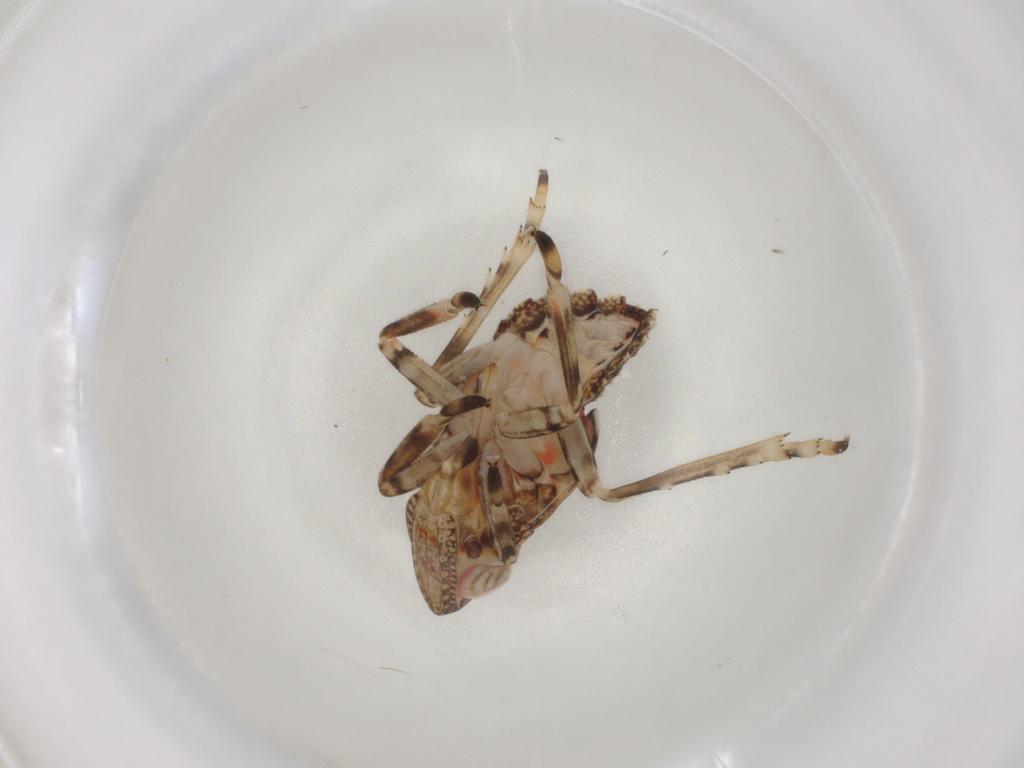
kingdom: Animalia
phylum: Arthropoda
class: Insecta
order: Hemiptera
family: Tropiduchidae
